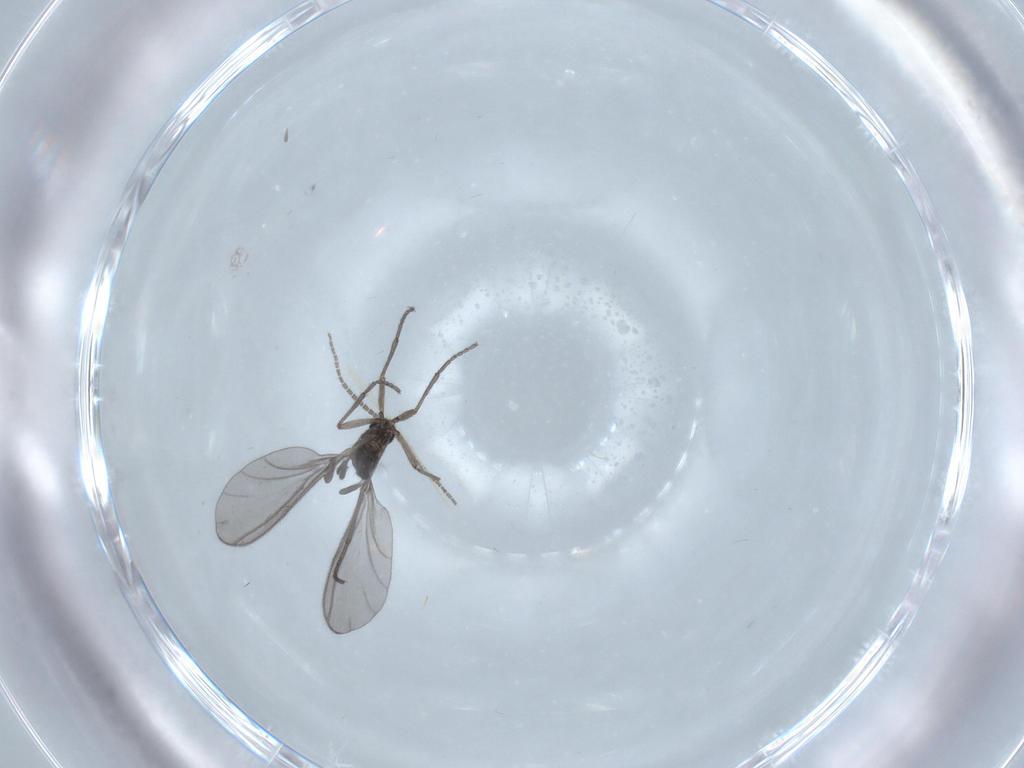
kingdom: Animalia
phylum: Arthropoda
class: Insecta
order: Diptera
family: Sciaridae
